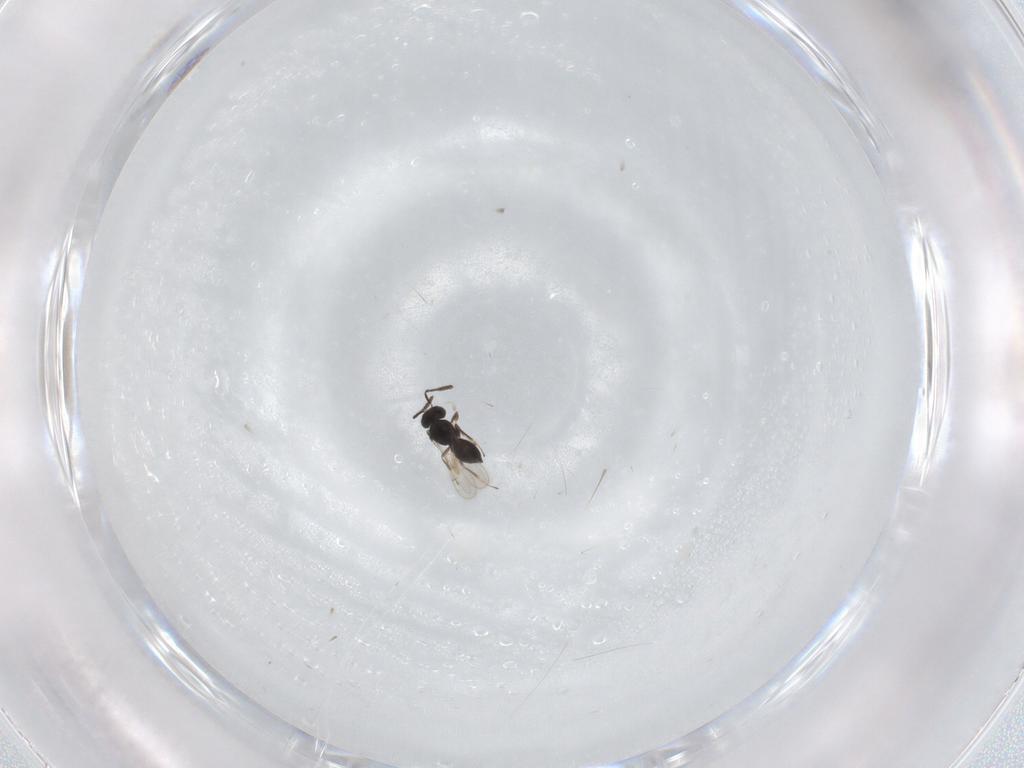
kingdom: Animalia
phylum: Arthropoda
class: Insecta
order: Hymenoptera
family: Scelionidae
